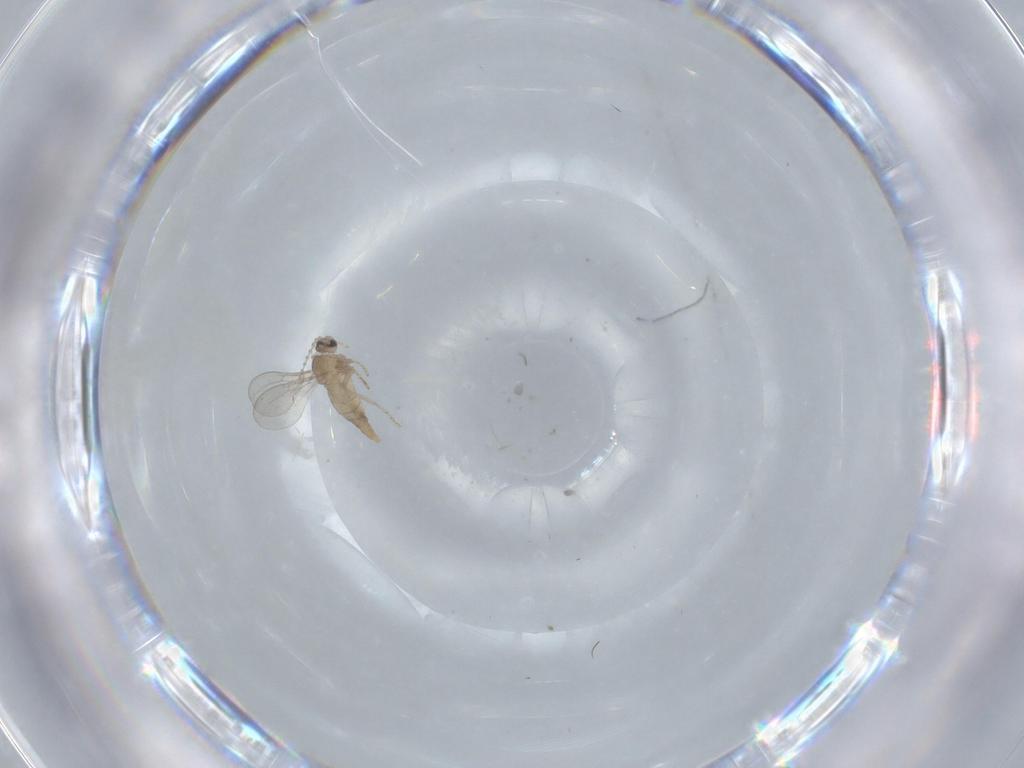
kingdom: Animalia
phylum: Arthropoda
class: Insecta
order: Diptera
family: Cecidomyiidae
